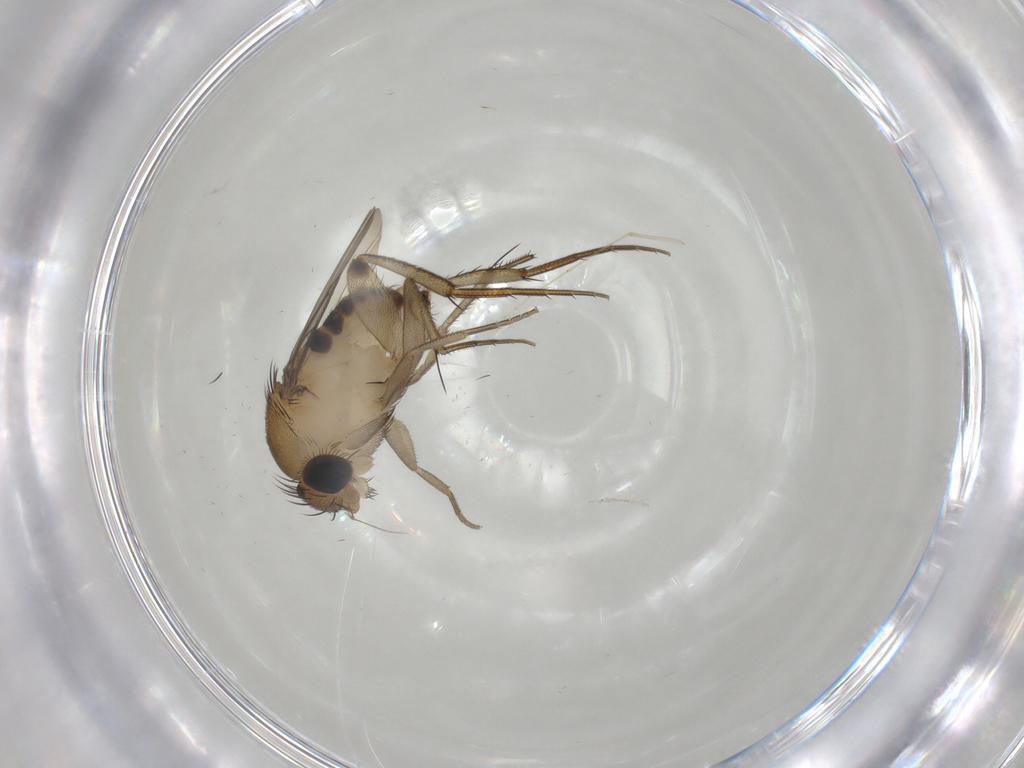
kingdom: Animalia
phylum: Arthropoda
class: Insecta
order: Diptera
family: Phoridae
